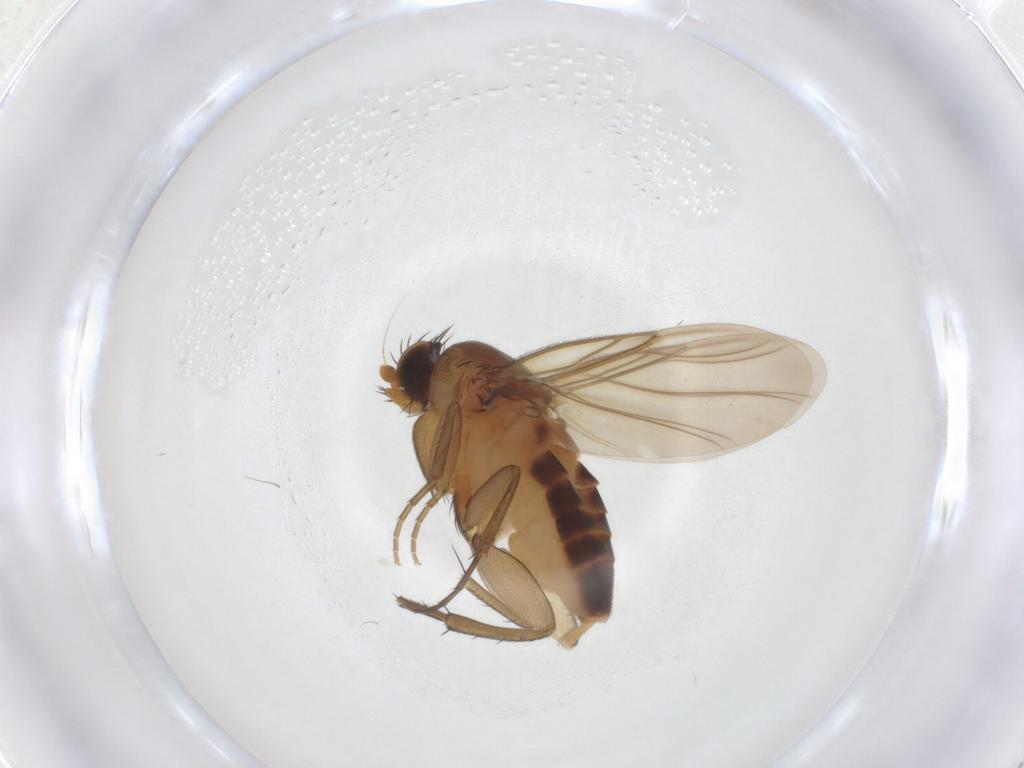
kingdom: Animalia
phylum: Arthropoda
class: Insecta
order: Diptera
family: Phoridae
